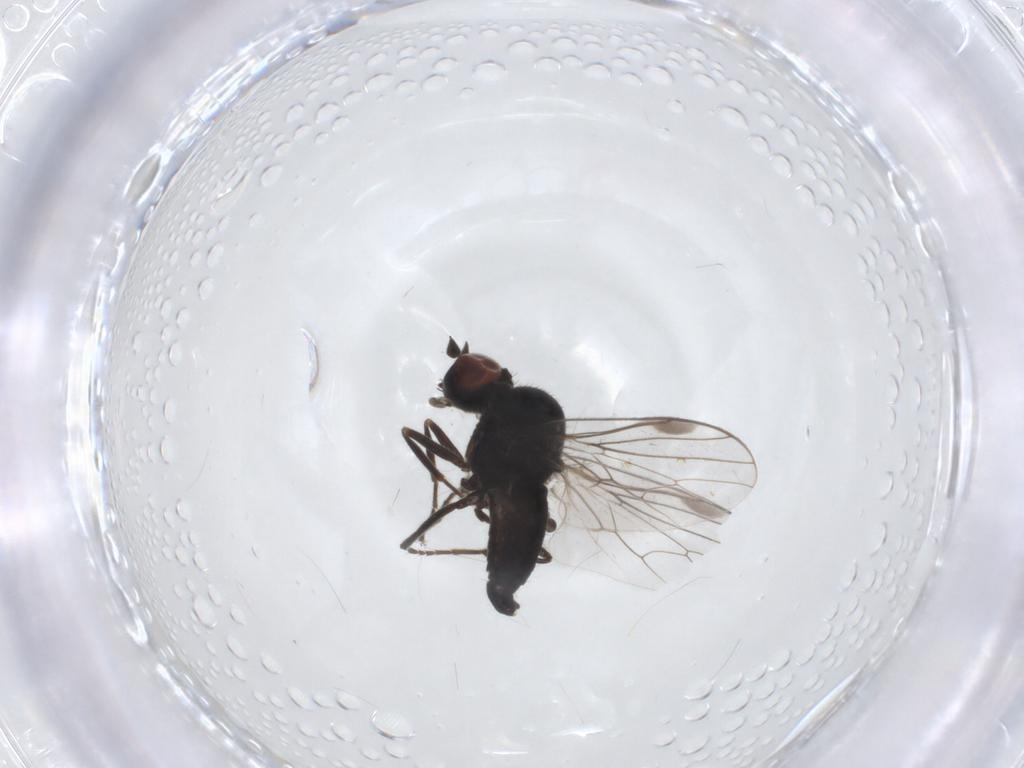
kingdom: Animalia
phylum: Arthropoda
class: Insecta
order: Diptera
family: Hybotidae
